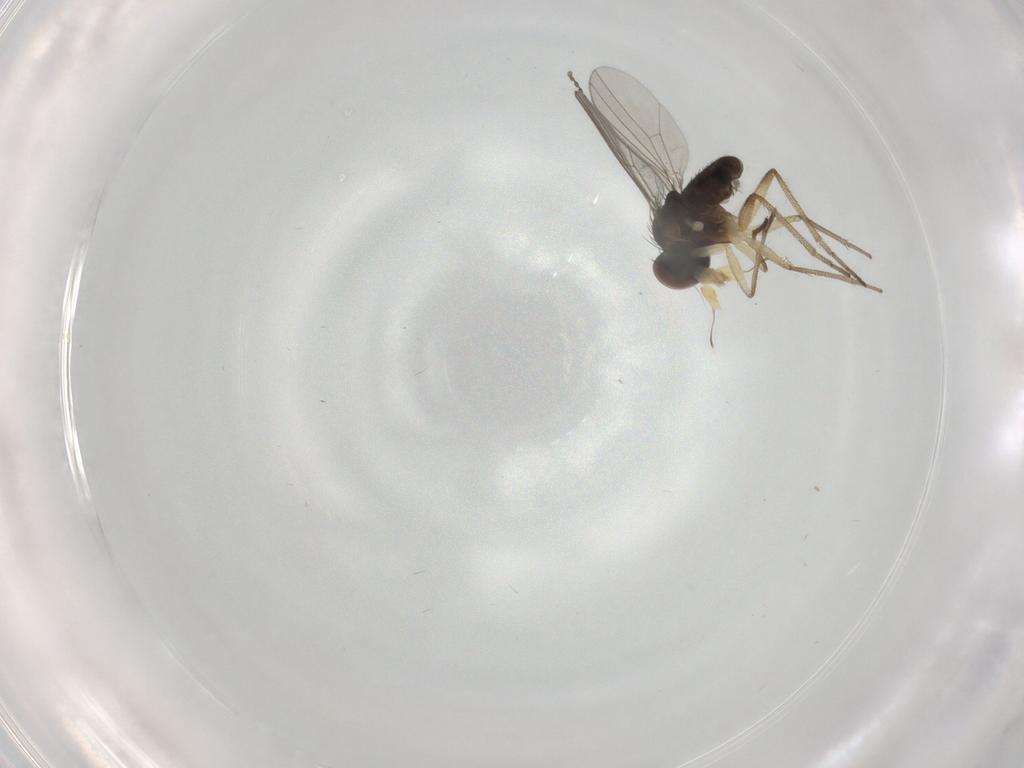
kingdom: Animalia
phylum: Arthropoda
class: Insecta
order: Diptera
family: Dolichopodidae
